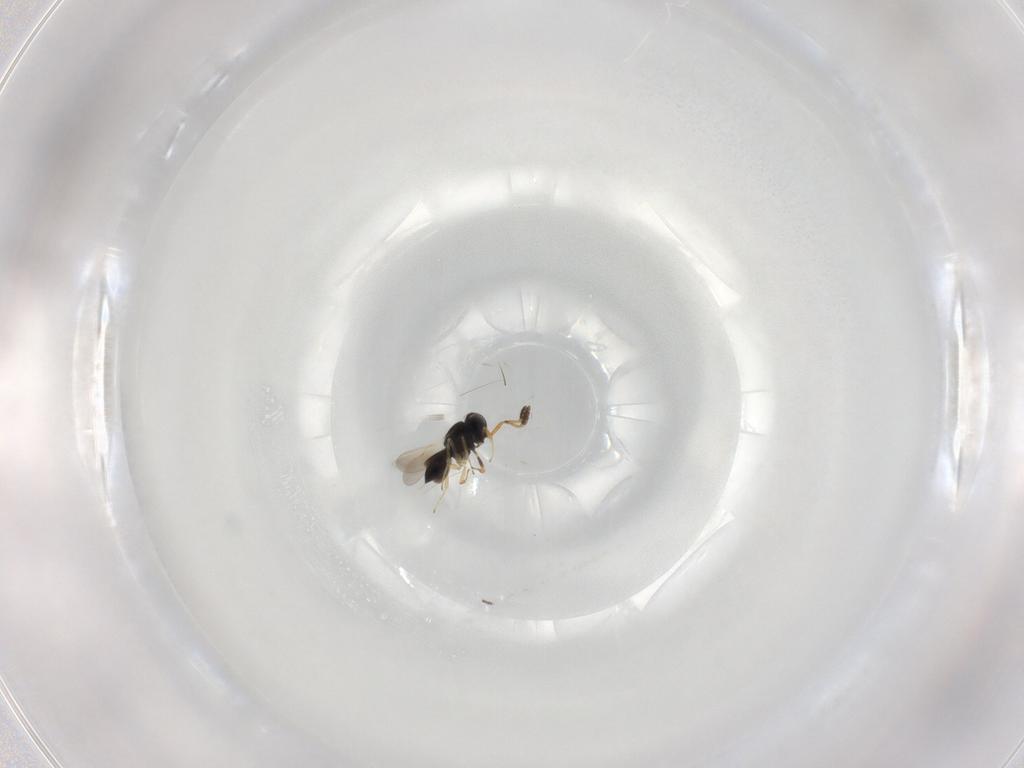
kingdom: Animalia
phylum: Arthropoda
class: Insecta
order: Hymenoptera
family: Scelionidae
